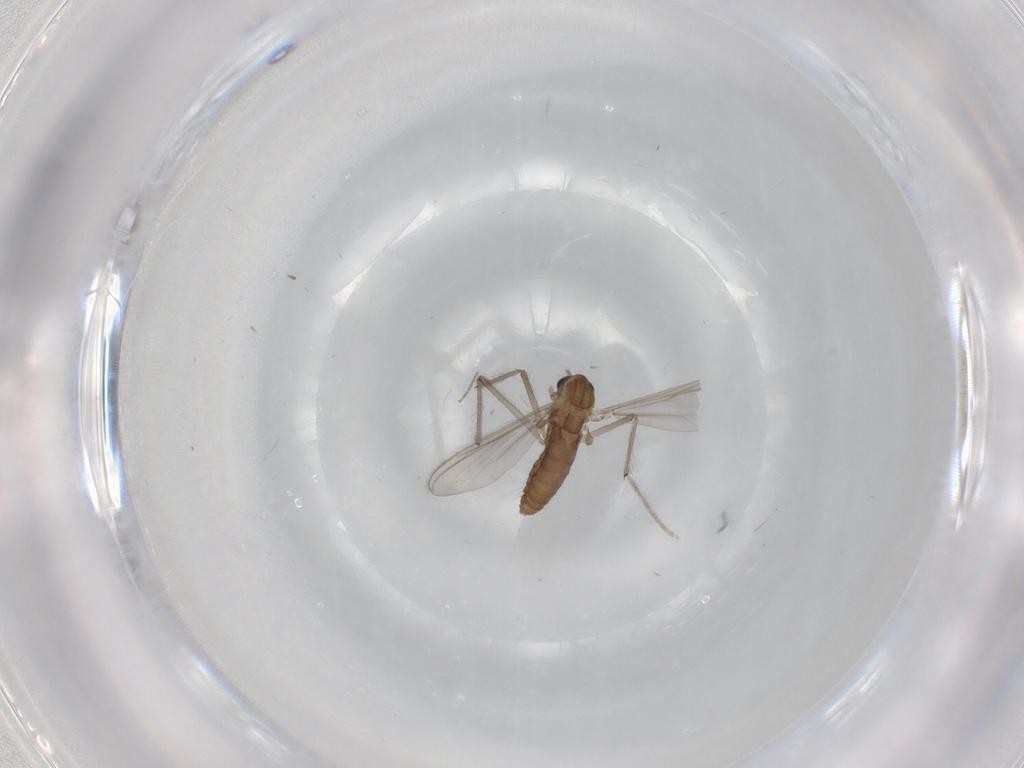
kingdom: Animalia
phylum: Arthropoda
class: Insecta
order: Diptera
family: Chironomidae
